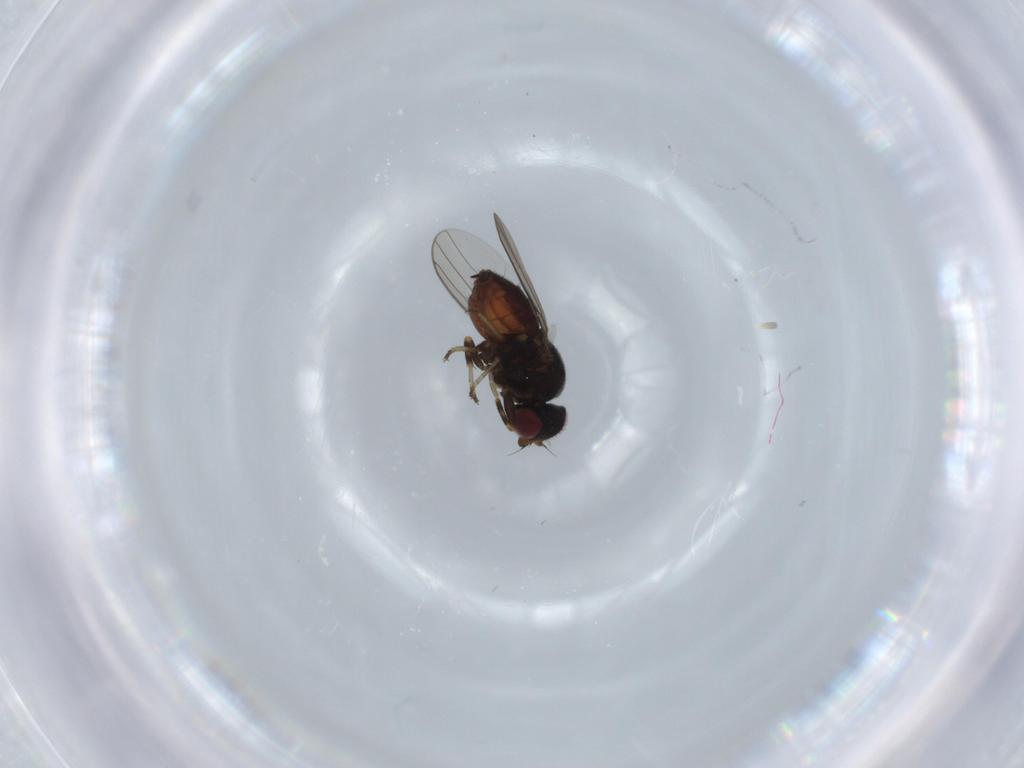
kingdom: Animalia
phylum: Arthropoda
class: Insecta
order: Diptera
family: Chloropidae
